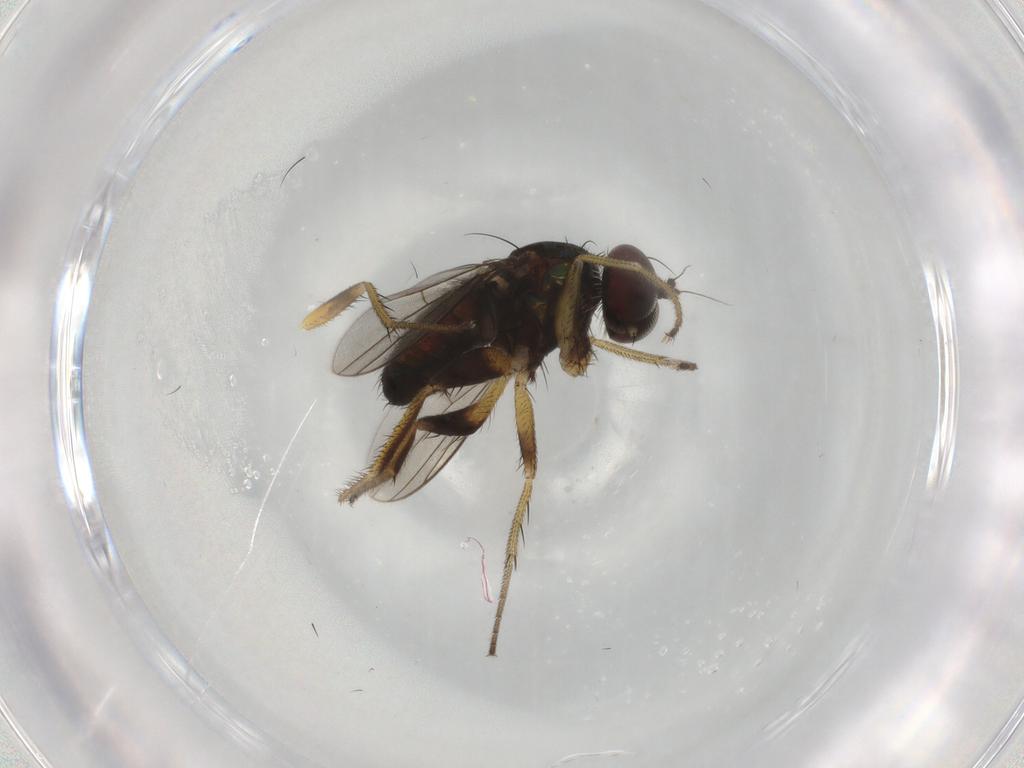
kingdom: Animalia
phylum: Arthropoda
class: Insecta
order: Diptera
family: Dolichopodidae
